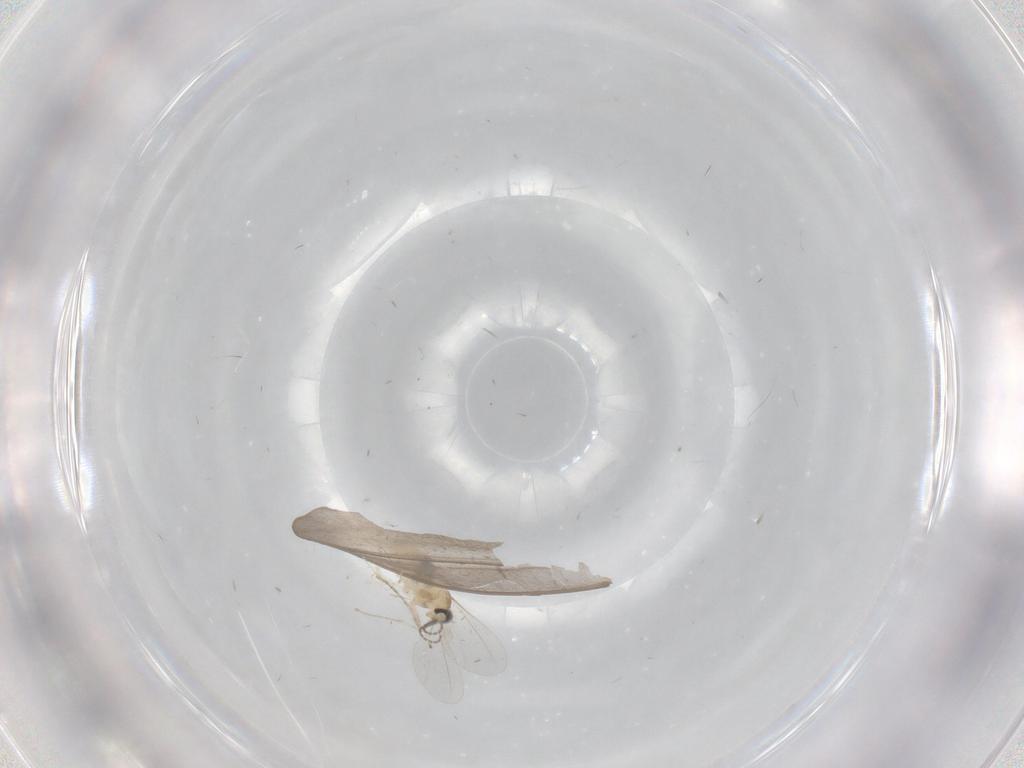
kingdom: Animalia
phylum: Arthropoda
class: Insecta
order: Diptera
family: Cecidomyiidae
